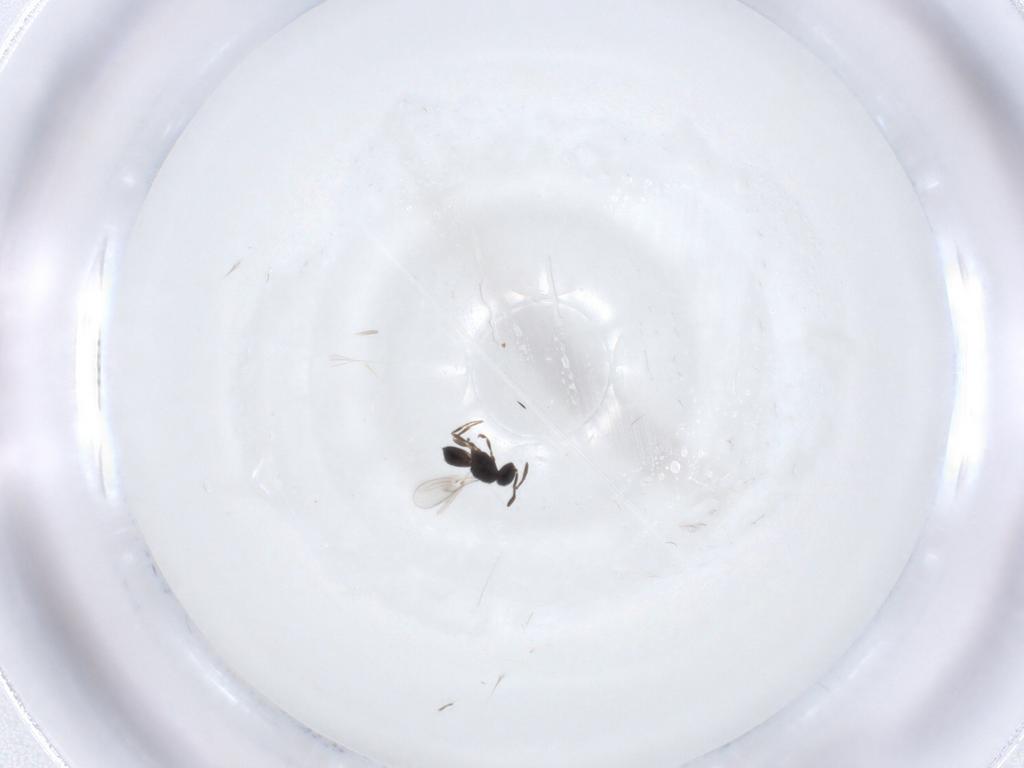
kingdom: Animalia
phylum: Arthropoda
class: Insecta
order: Hymenoptera
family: Scelionidae
